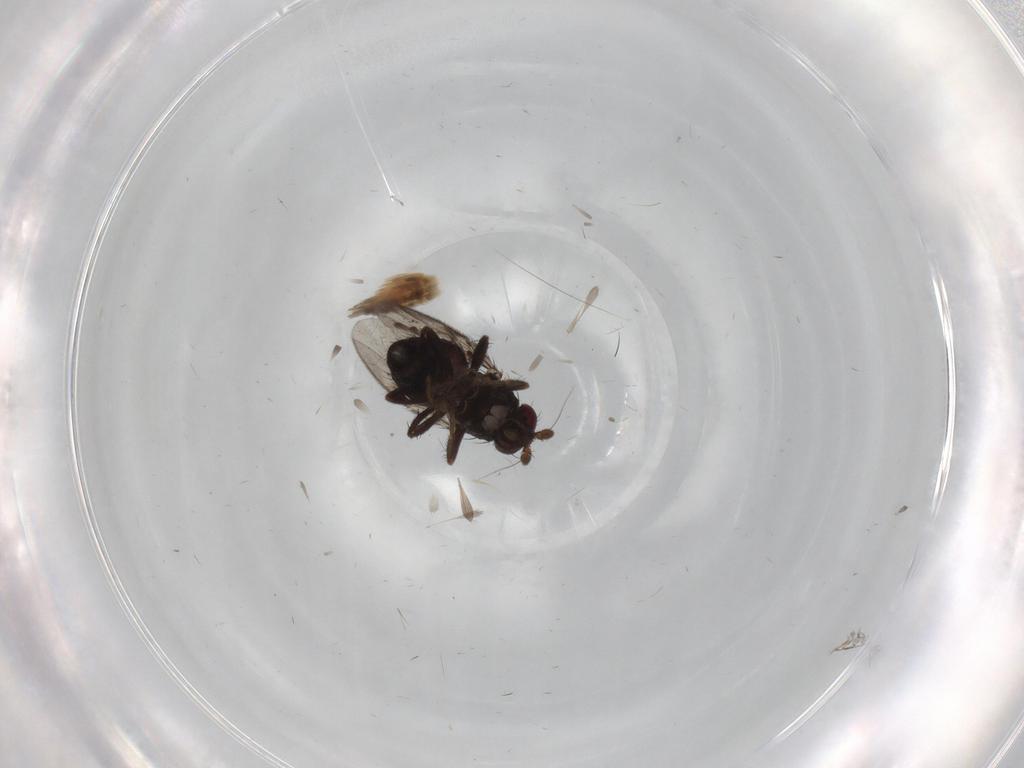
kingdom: Animalia
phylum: Arthropoda
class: Insecta
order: Diptera
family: Sphaeroceridae
